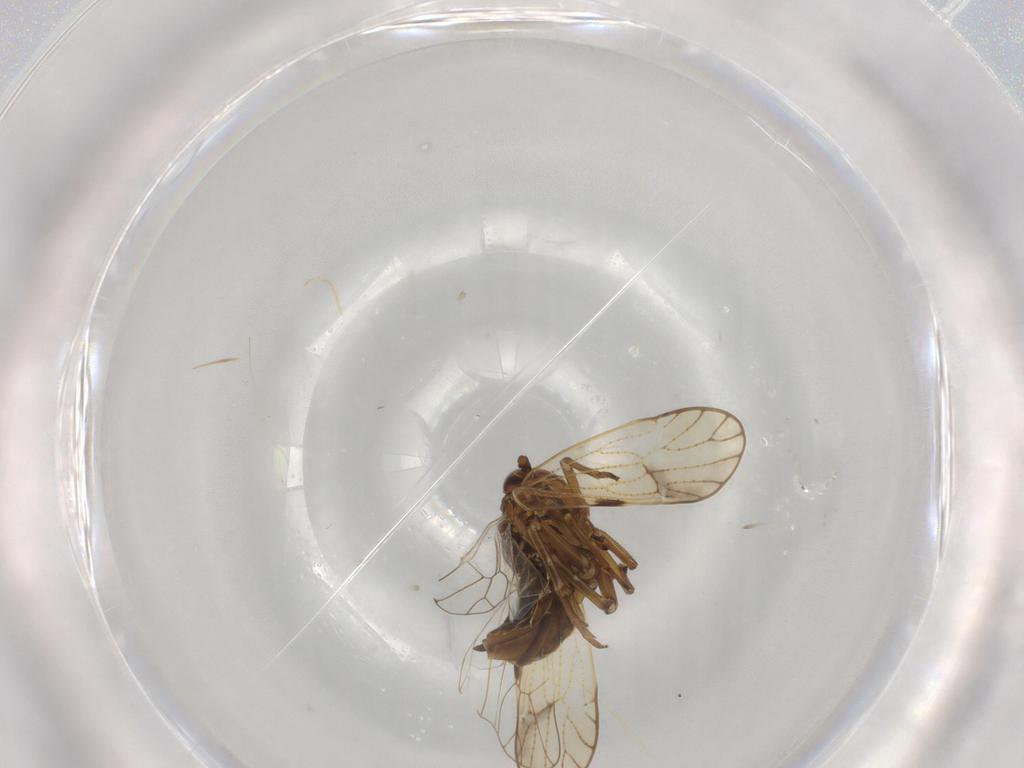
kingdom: Animalia
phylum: Arthropoda
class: Insecta
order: Hemiptera
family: Delphacidae
